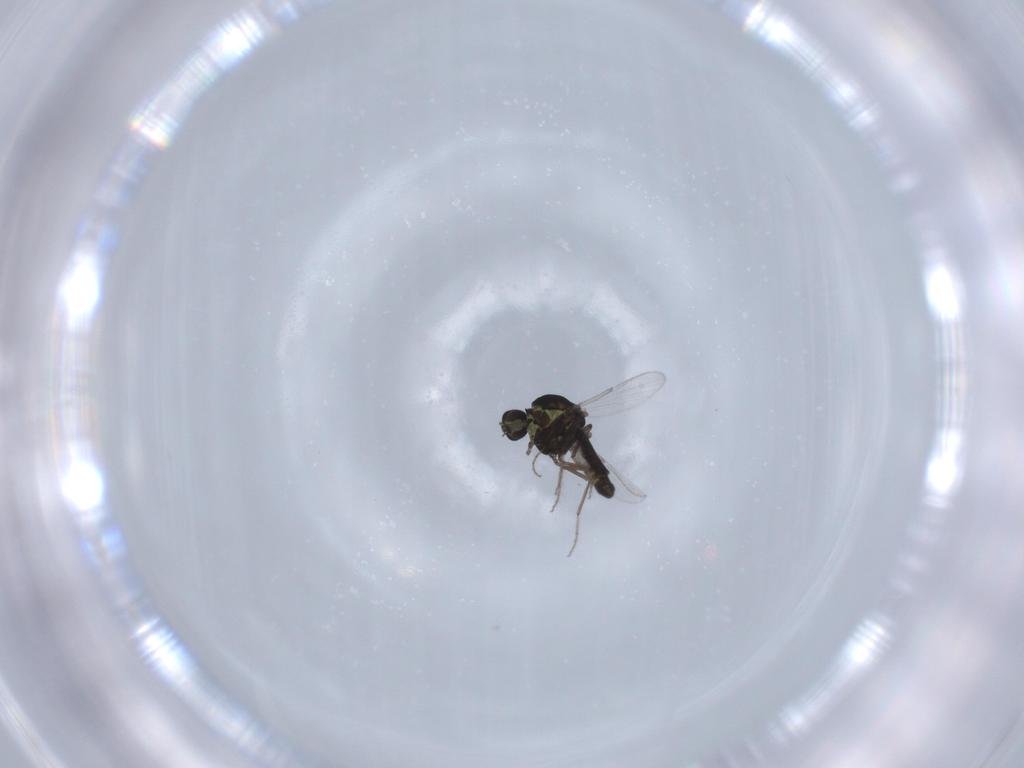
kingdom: Animalia
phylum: Arthropoda
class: Insecta
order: Diptera
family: Ceratopogonidae
